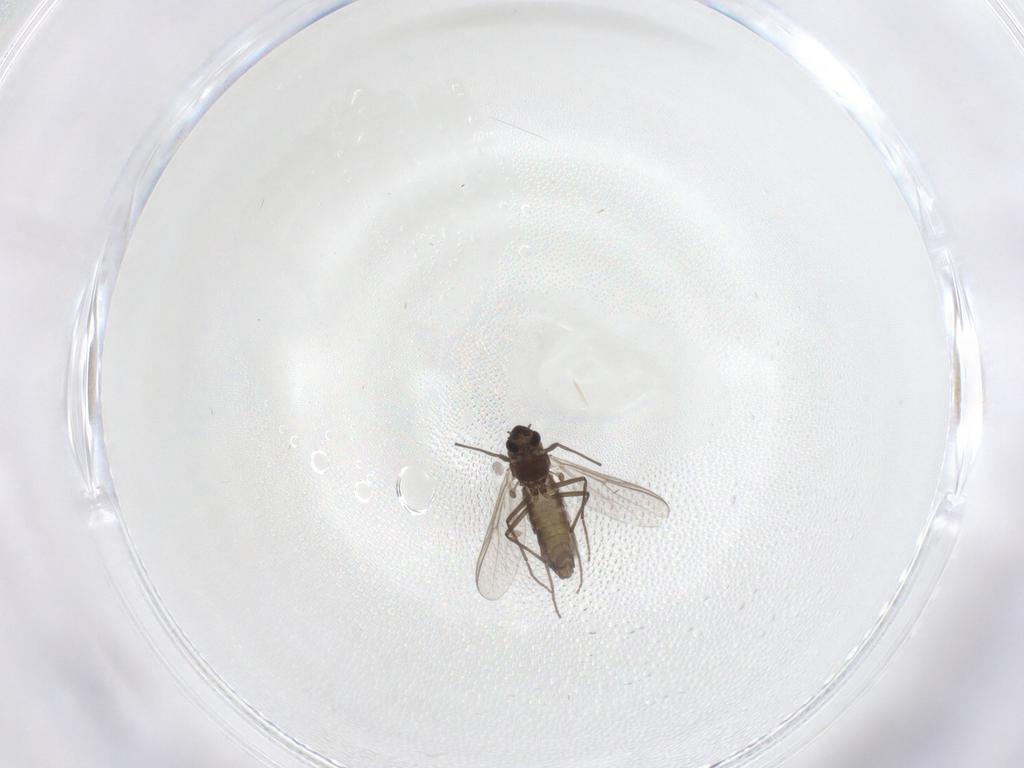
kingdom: Animalia
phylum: Arthropoda
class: Insecta
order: Diptera
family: Chironomidae
